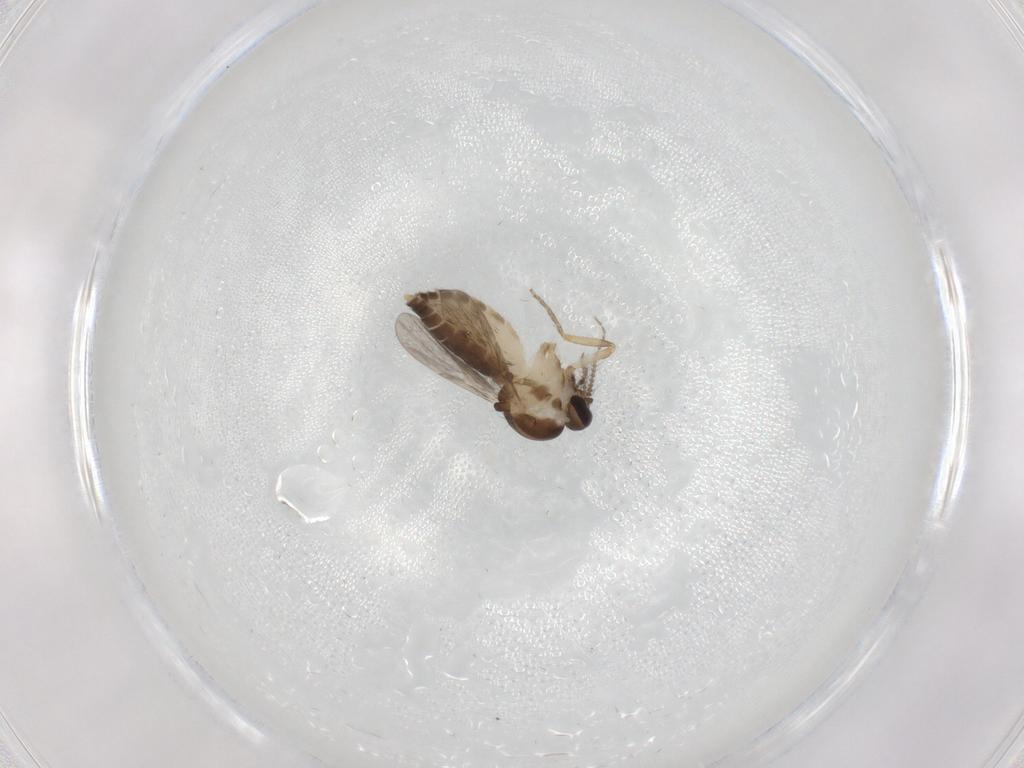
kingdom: Animalia
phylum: Arthropoda
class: Insecta
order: Diptera
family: Ceratopogonidae
